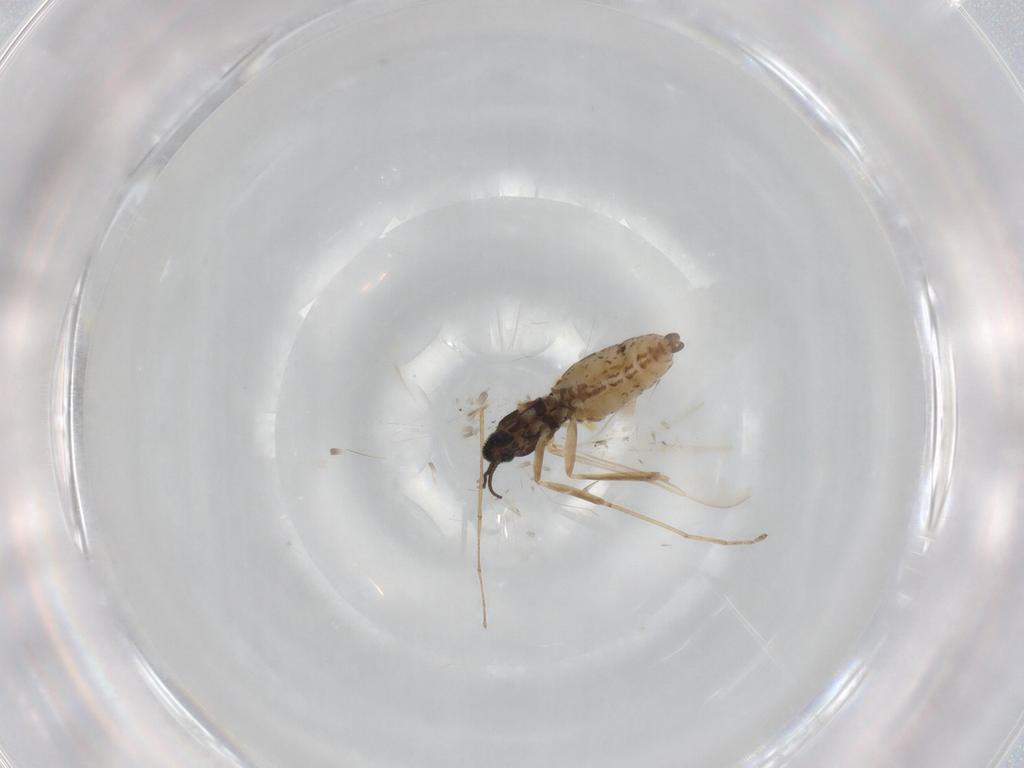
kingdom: Animalia
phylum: Arthropoda
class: Insecta
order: Diptera
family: Cecidomyiidae
